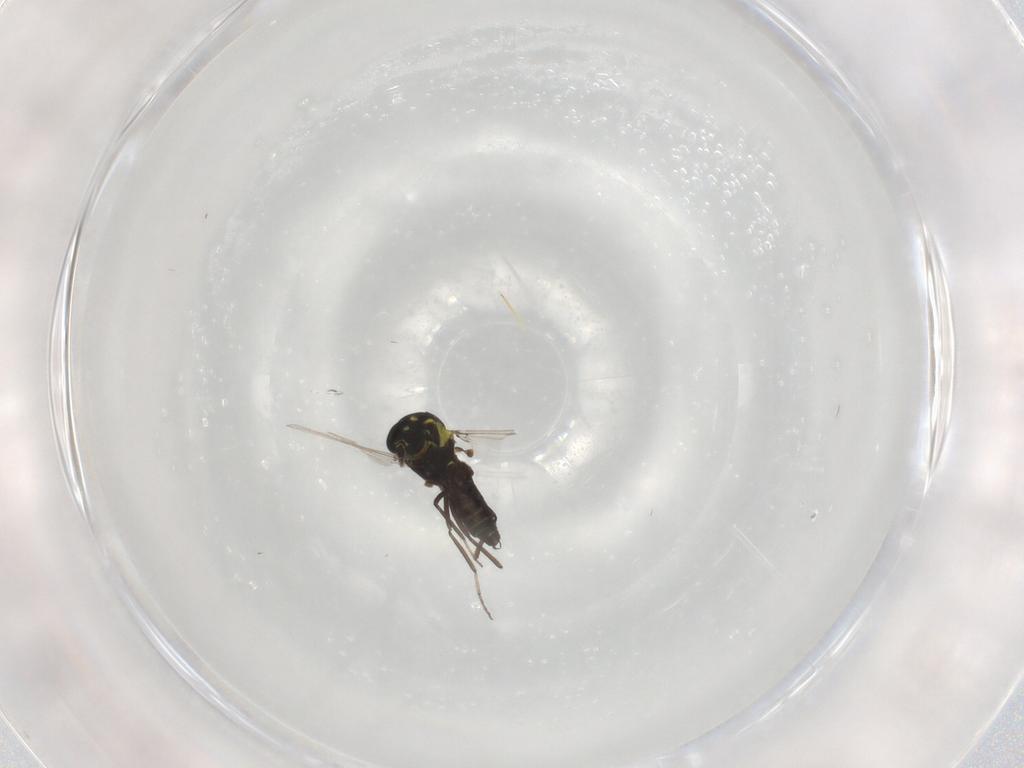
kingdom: Animalia
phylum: Arthropoda
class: Insecta
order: Diptera
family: Ceratopogonidae
